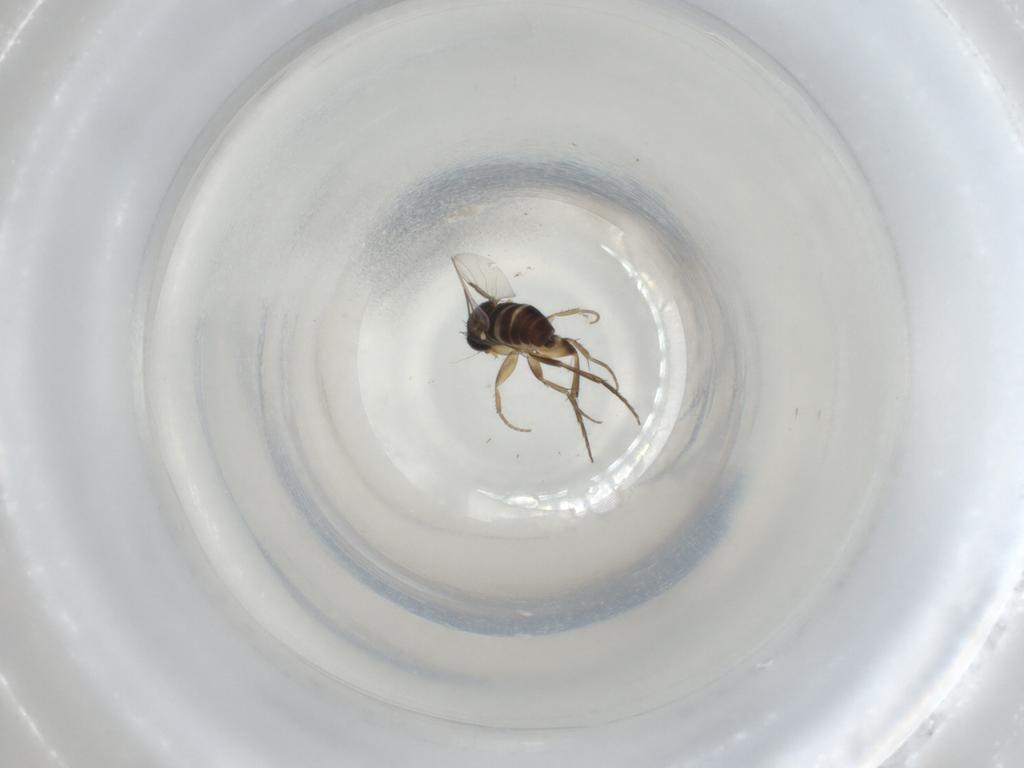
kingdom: Animalia
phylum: Arthropoda
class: Insecta
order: Diptera
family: Phoridae
